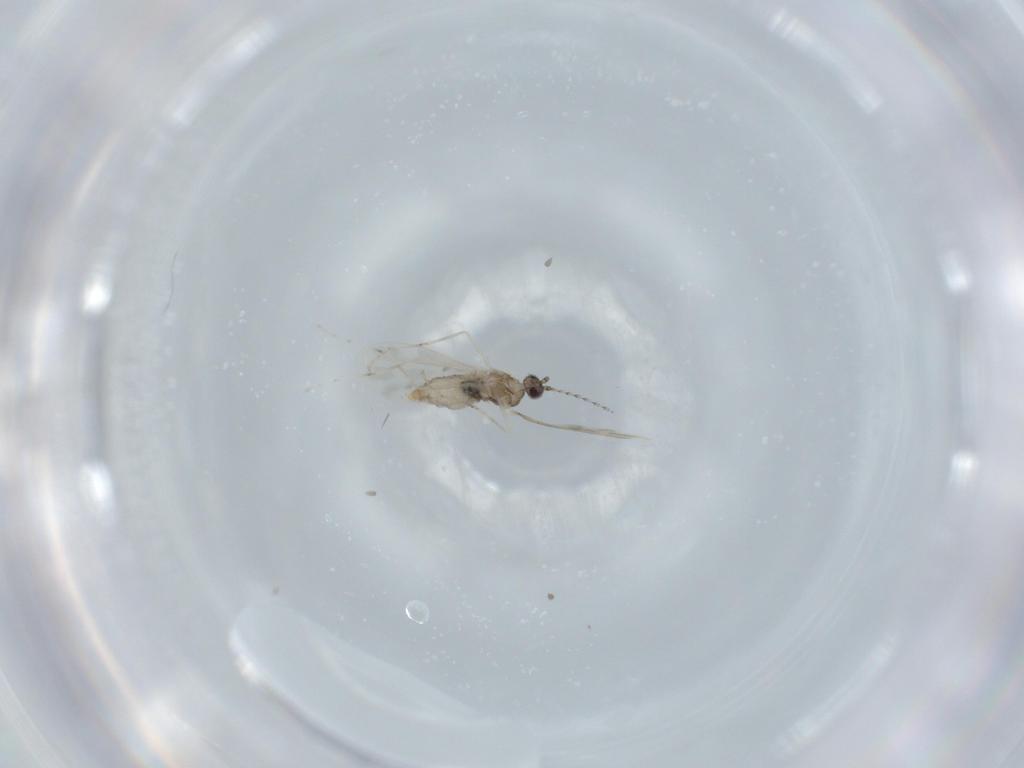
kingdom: Animalia
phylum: Arthropoda
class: Insecta
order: Diptera
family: Cecidomyiidae
